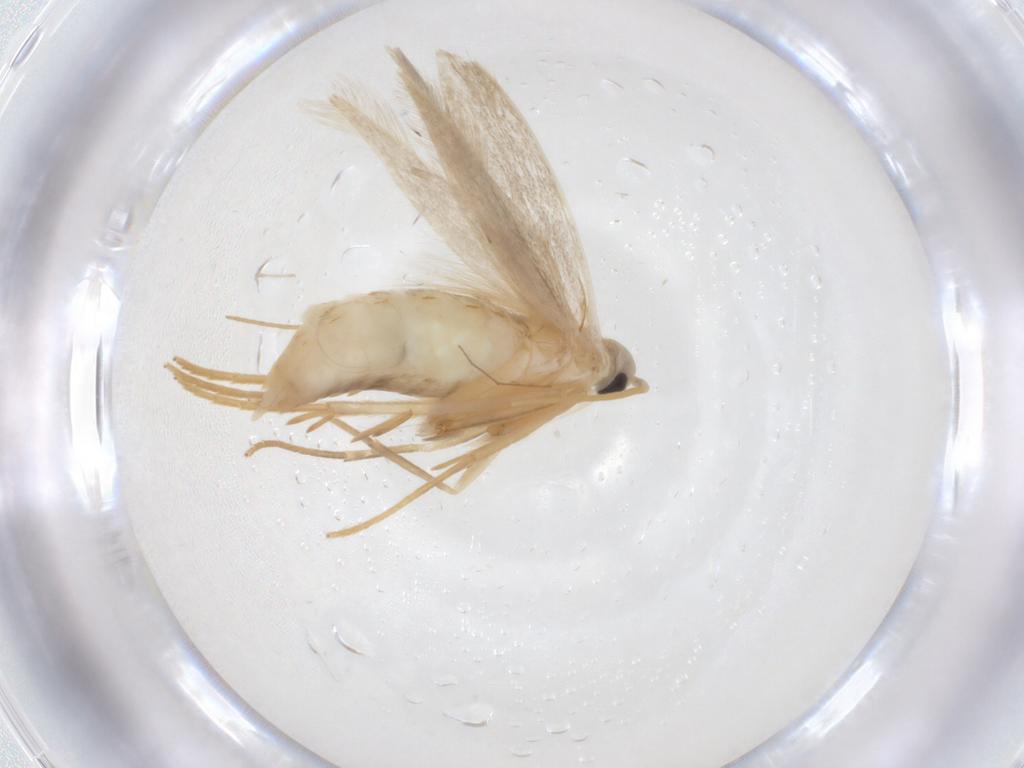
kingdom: Animalia
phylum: Arthropoda
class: Insecta
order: Lepidoptera
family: Coleophoridae
